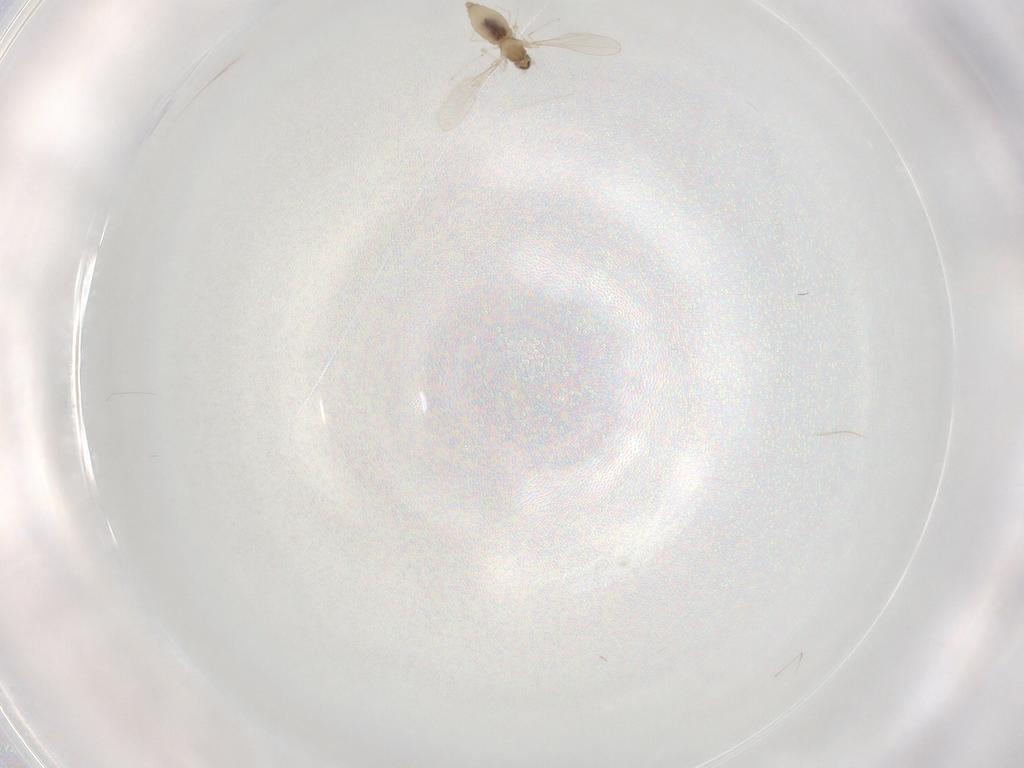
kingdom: Animalia
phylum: Arthropoda
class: Insecta
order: Diptera
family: Cecidomyiidae
